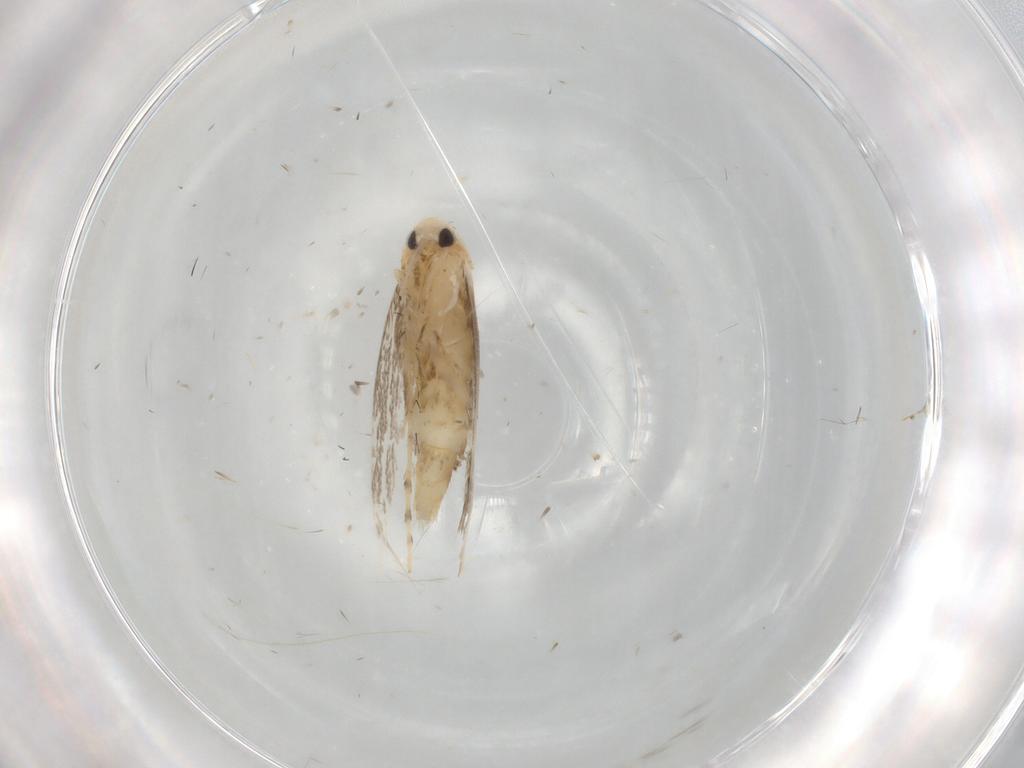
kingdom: Animalia
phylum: Arthropoda
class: Insecta
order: Lepidoptera
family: Gracillariidae
